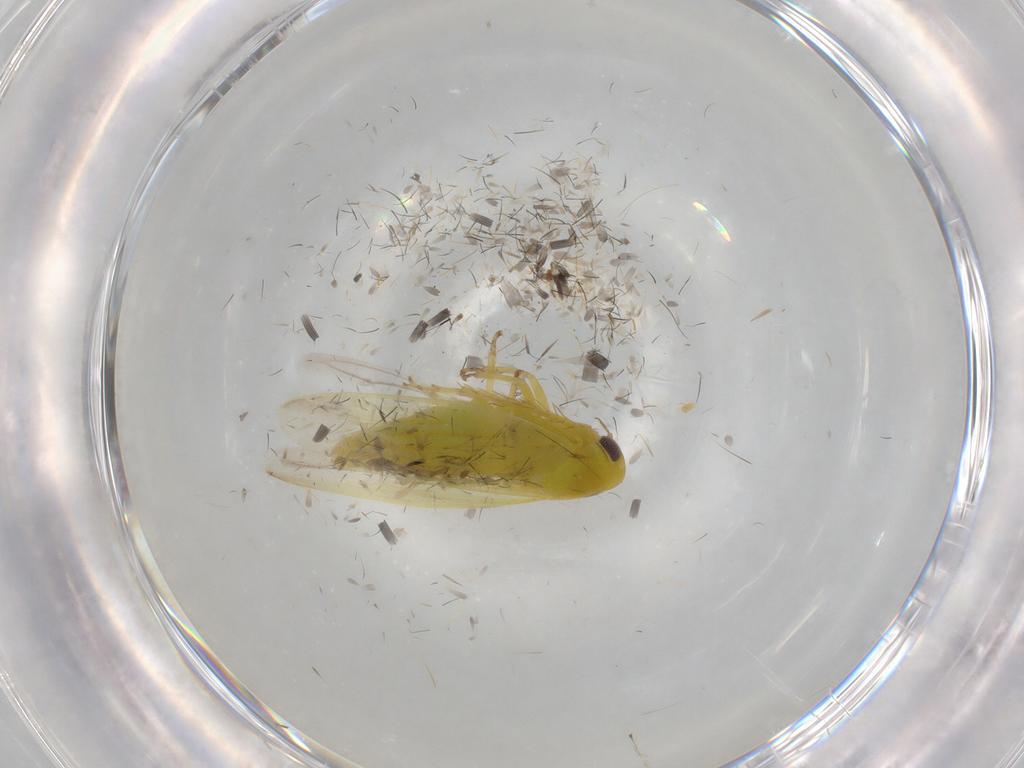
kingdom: Animalia
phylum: Arthropoda
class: Insecta
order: Hemiptera
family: Cicadellidae
